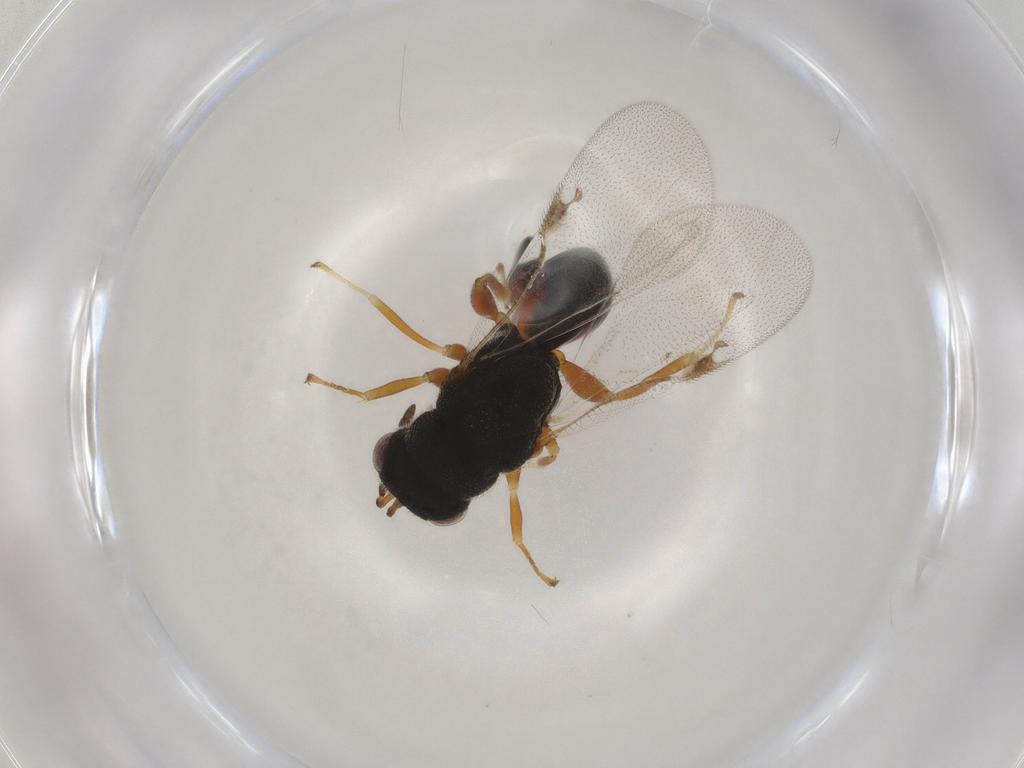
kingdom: Animalia
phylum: Arthropoda
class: Insecta
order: Hymenoptera
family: Eurytomidae
